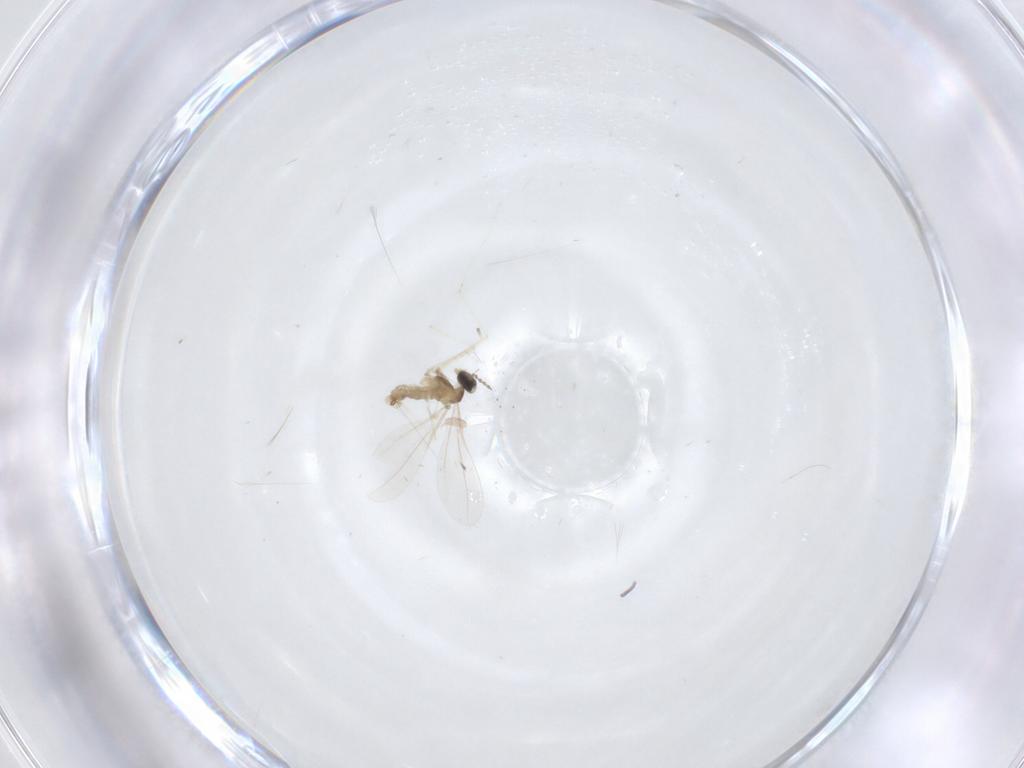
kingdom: Animalia
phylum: Arthropoda
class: Insecta
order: Diptera
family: Cecidomyiidae
